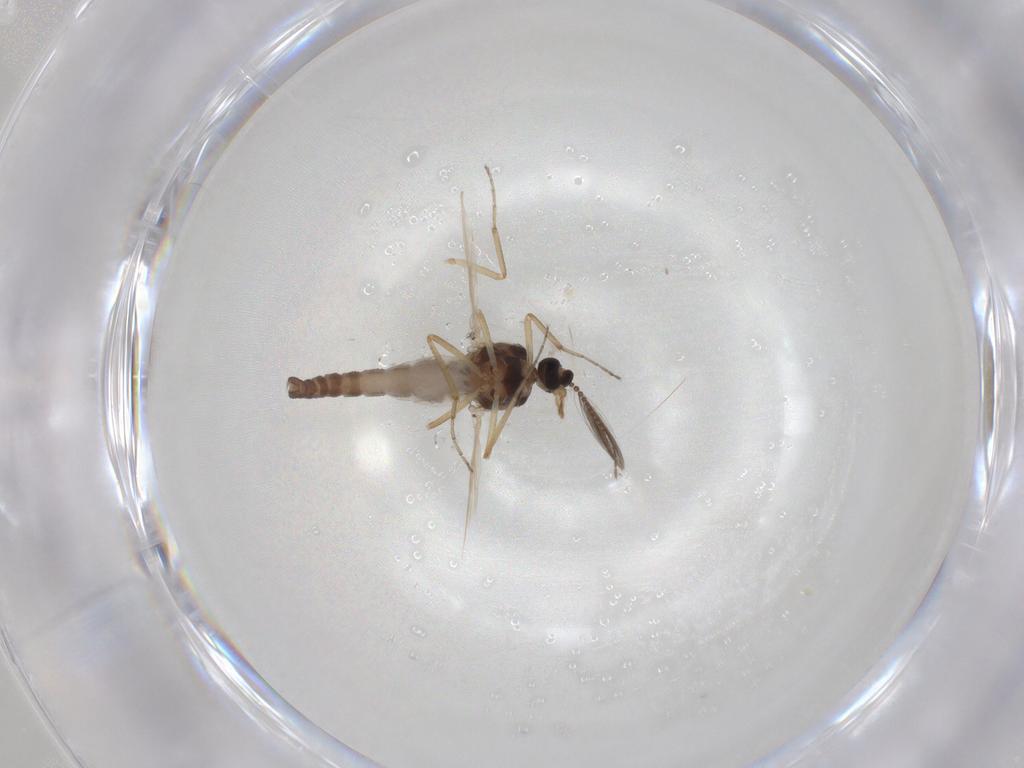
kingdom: Animalia
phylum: Arthropoda
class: Insecta
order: Diptera
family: Ceratopogonidae
